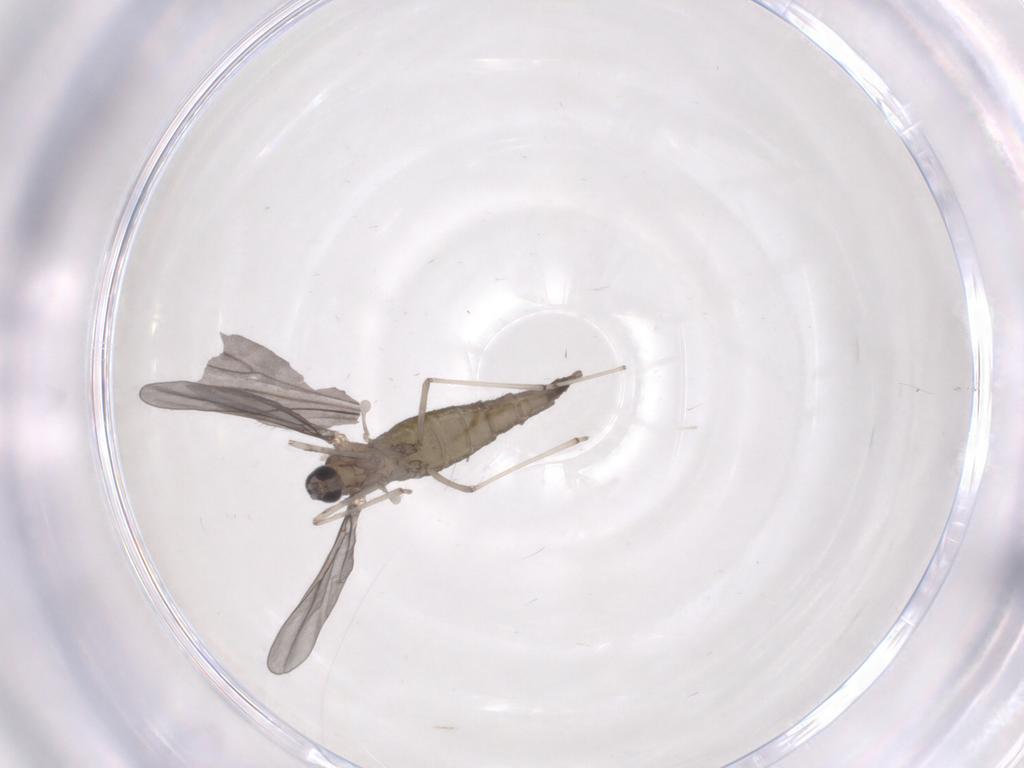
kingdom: Animalia
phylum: Arthropoda
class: Insecta
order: Diptera
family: Cecidomyiidae
